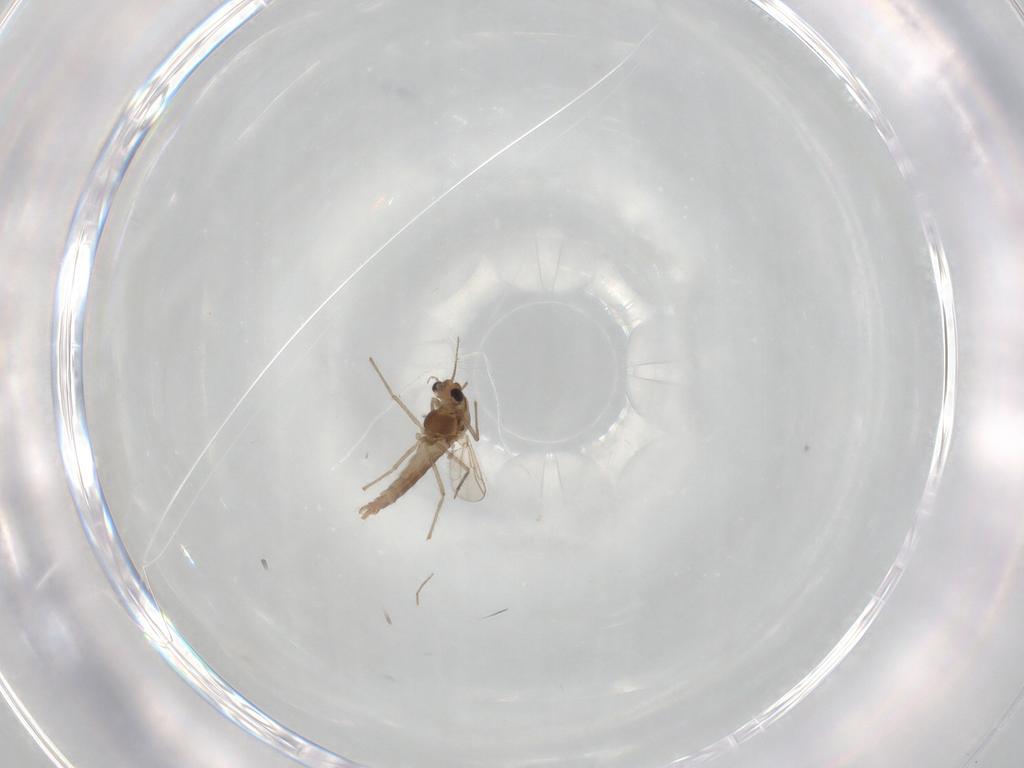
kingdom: Animalia
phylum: Arthropoda
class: Insecta
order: Diptera
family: Chironomidae
